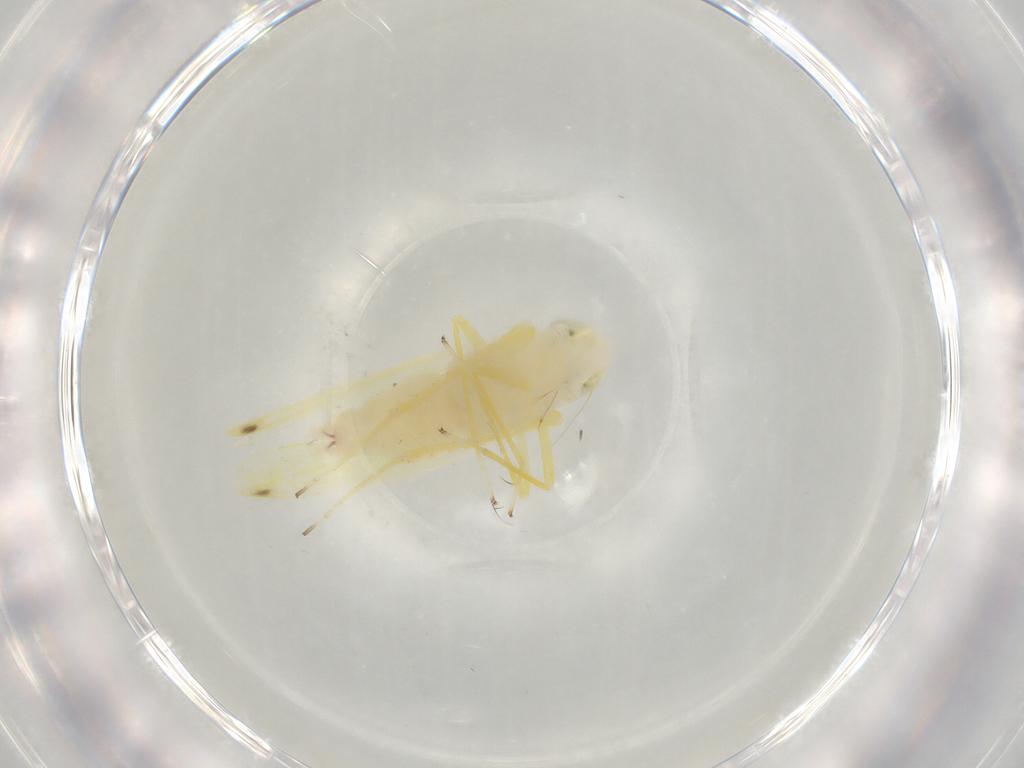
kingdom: Animalia
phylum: Arthropoda
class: Insecta
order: Hemiptera
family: Cicadellidae
